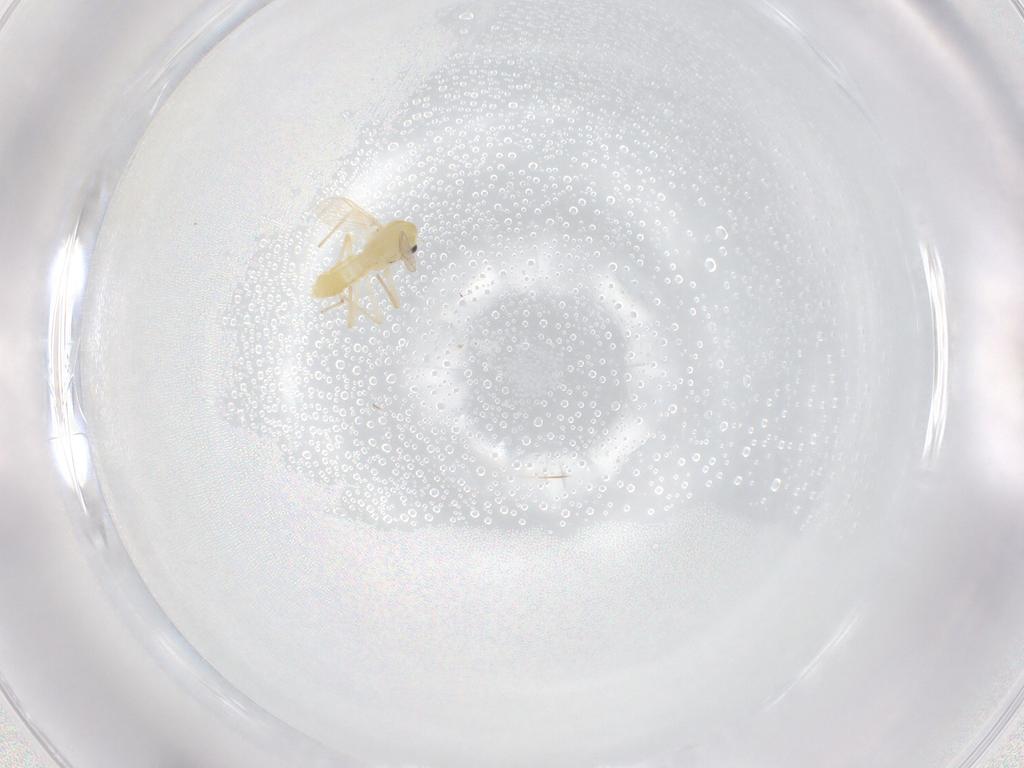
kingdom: Animalia
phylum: Arthropoda
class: Insecta
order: Diptera
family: Chironomidae
